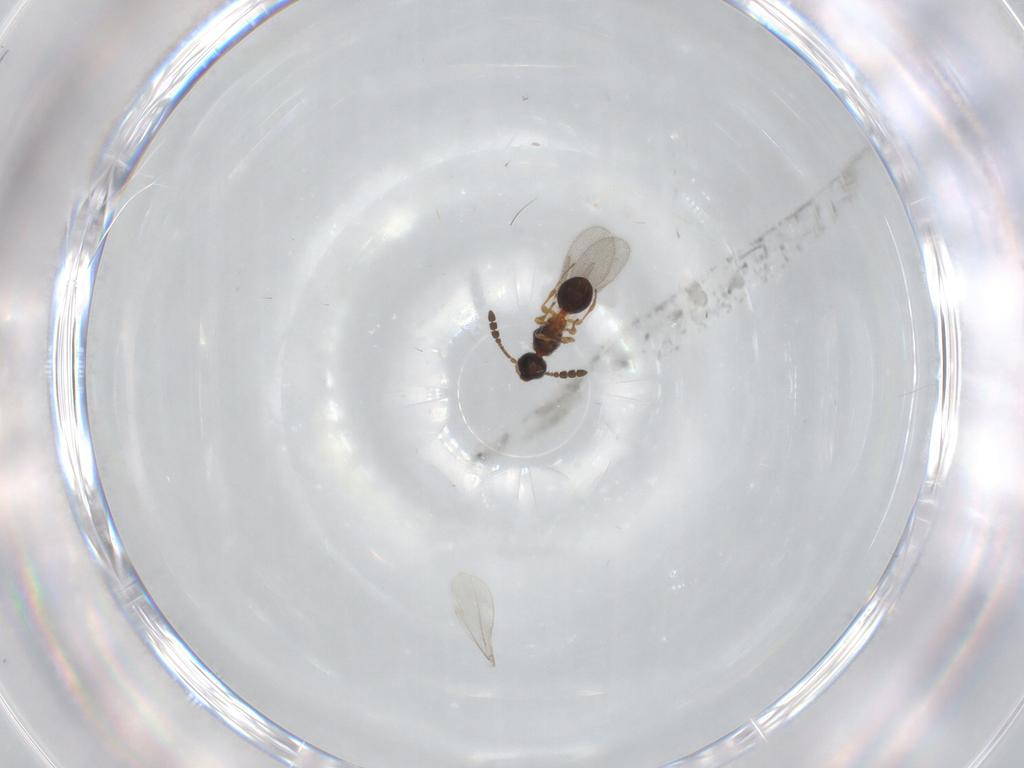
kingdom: Animalia
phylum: Arthropoda
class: Insecta
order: Hymenoptera
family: Diapriidae
